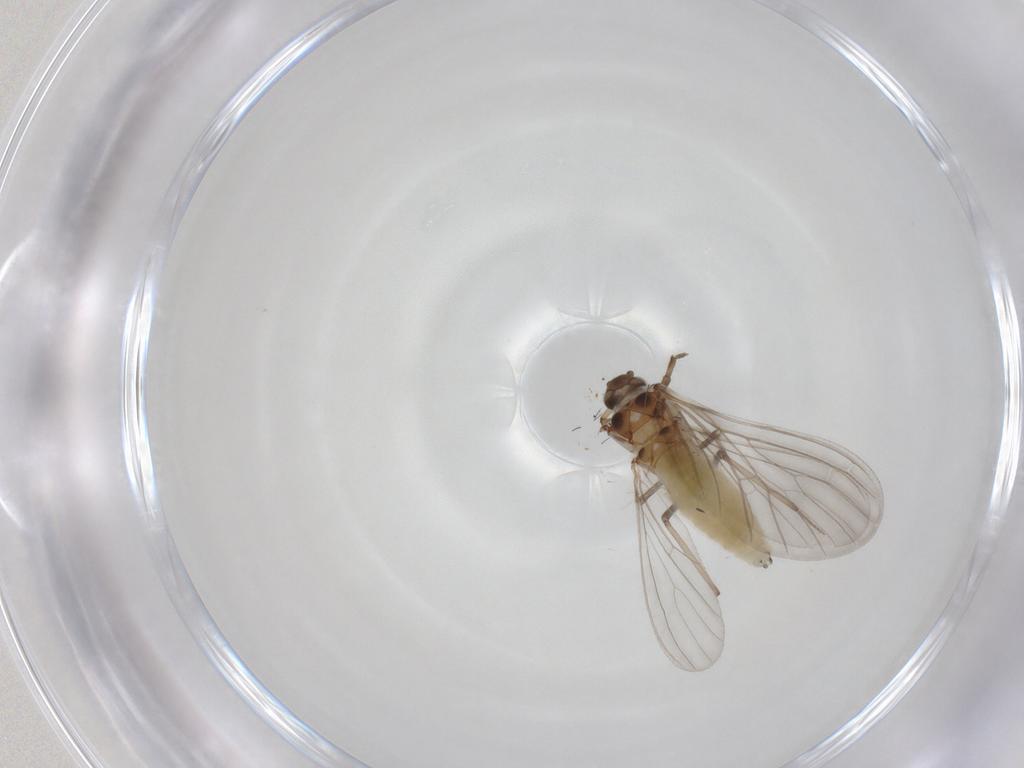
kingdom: Animalia
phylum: Arthropoda
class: Insecta
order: Neuroptera
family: Coniopterygidae
